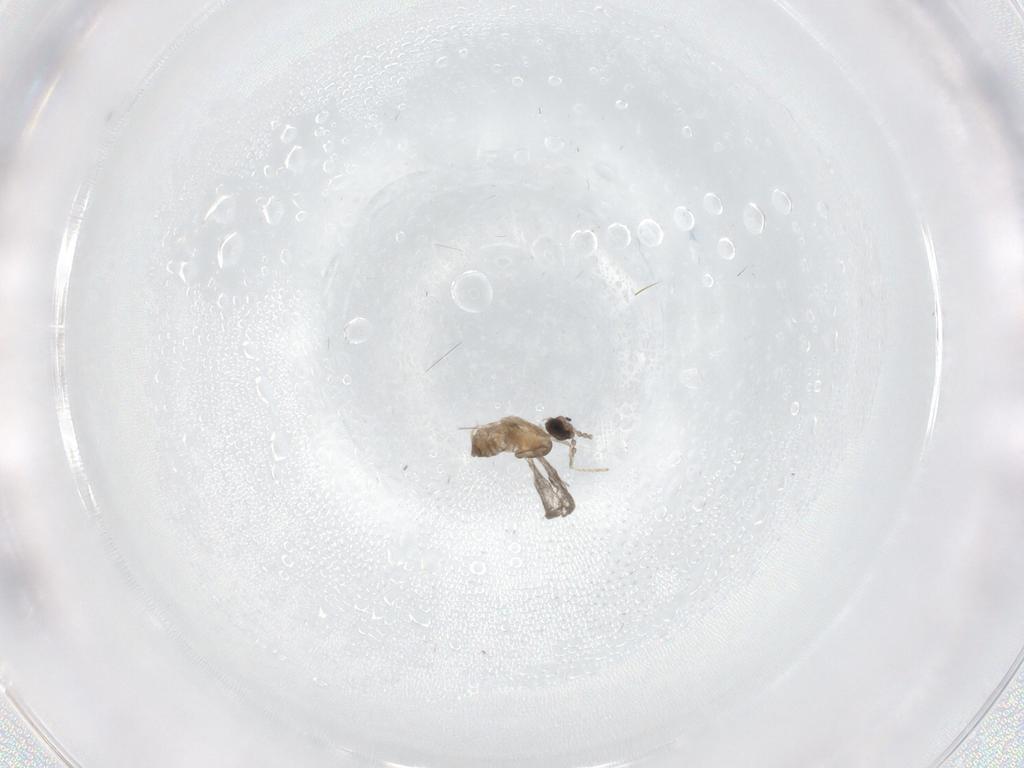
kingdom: Animalia
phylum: Arthropoda
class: Insecta
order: Diptera
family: Cecidomyiidae
